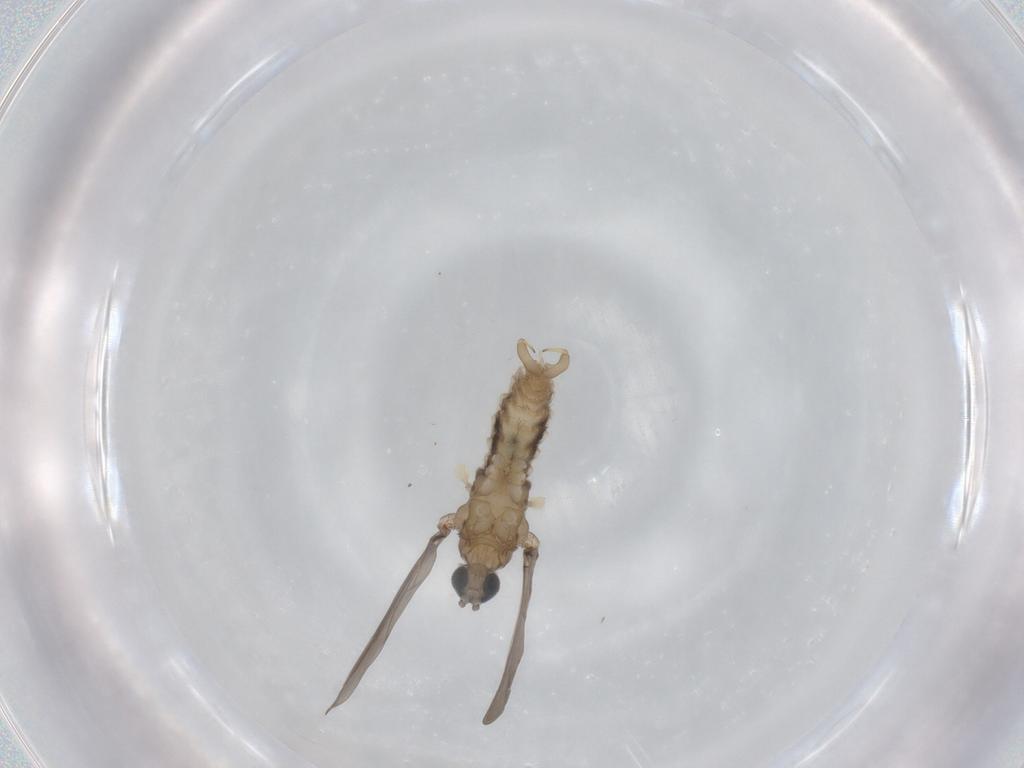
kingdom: Animalia
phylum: Arthropoda
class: Insecta
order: Diptera
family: Cecidomyiidae
